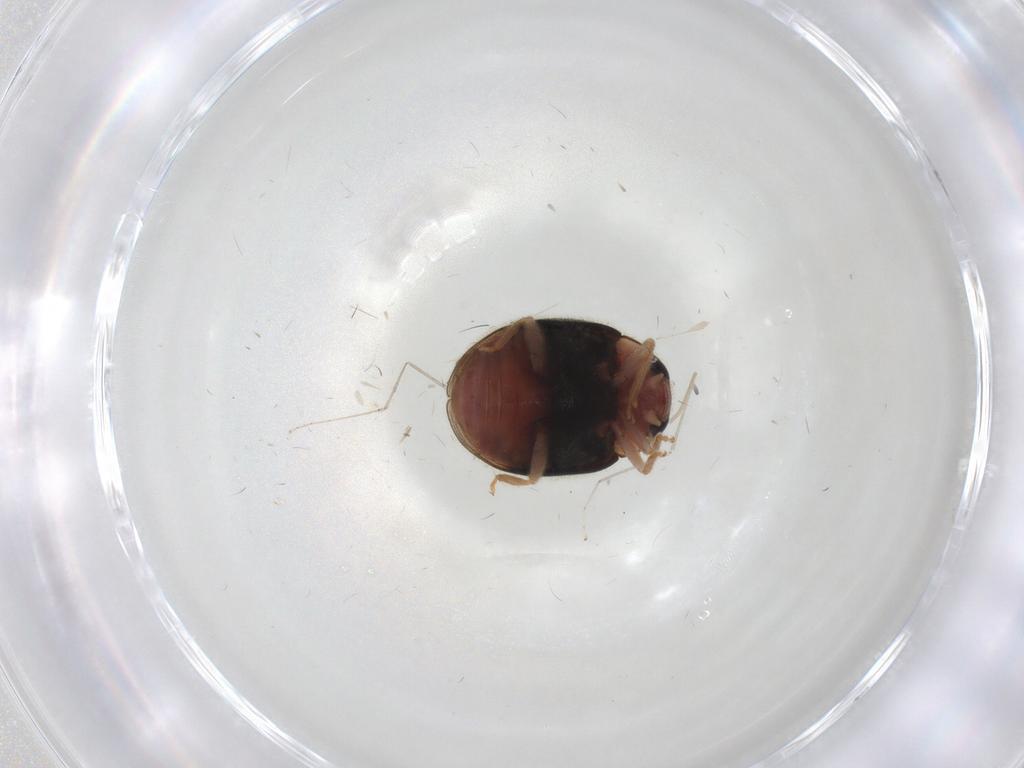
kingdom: Animalia
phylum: Arthropoda
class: Insecta
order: Coleoptera
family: Coccinellidae
